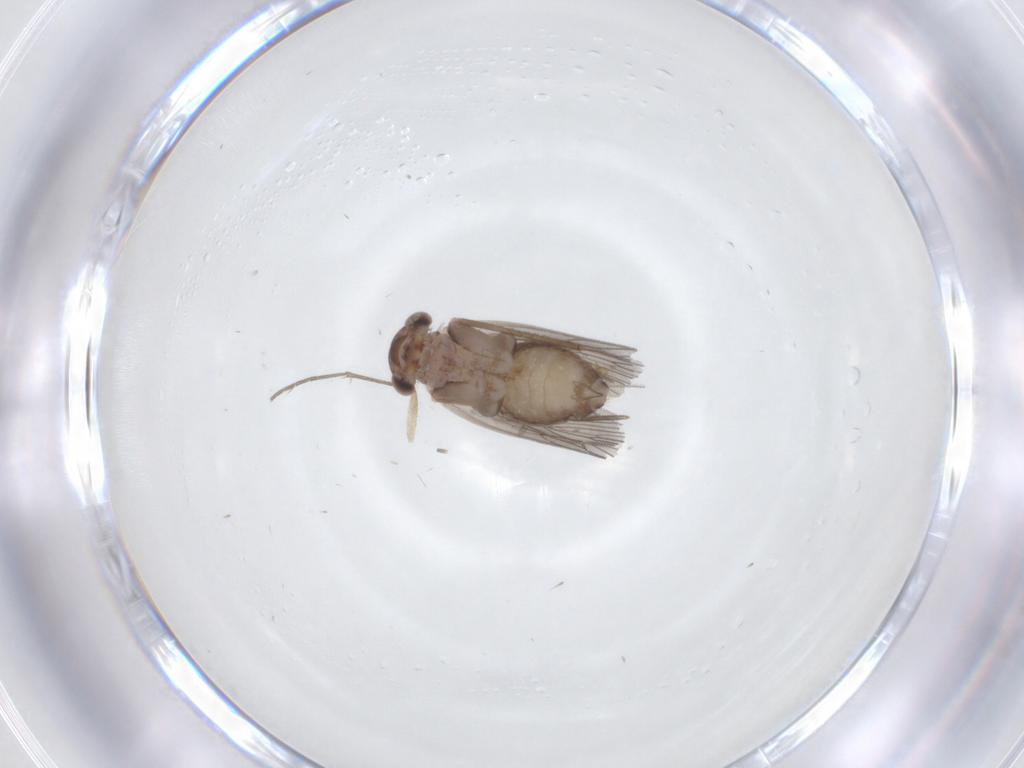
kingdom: Animalia
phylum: Arthropoda
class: Insecta
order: Psocodea
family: Lepidopsocidae
